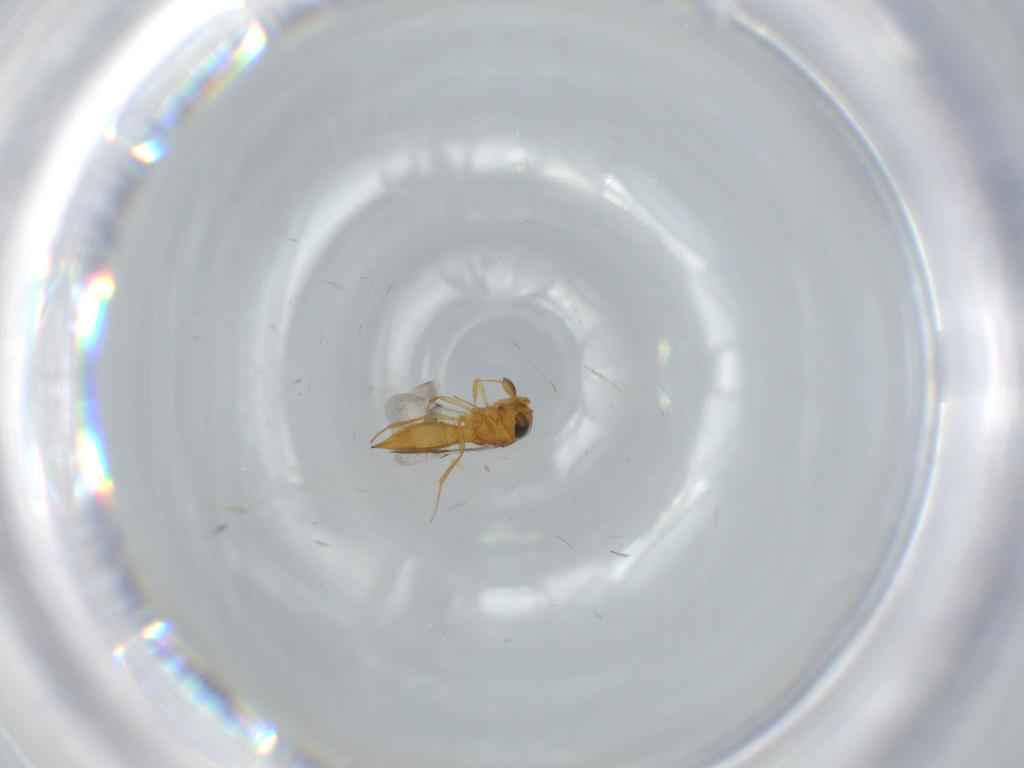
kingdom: Animalia
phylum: Arthropoda
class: Insecta
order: Hymenoptera
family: Scelionidae
